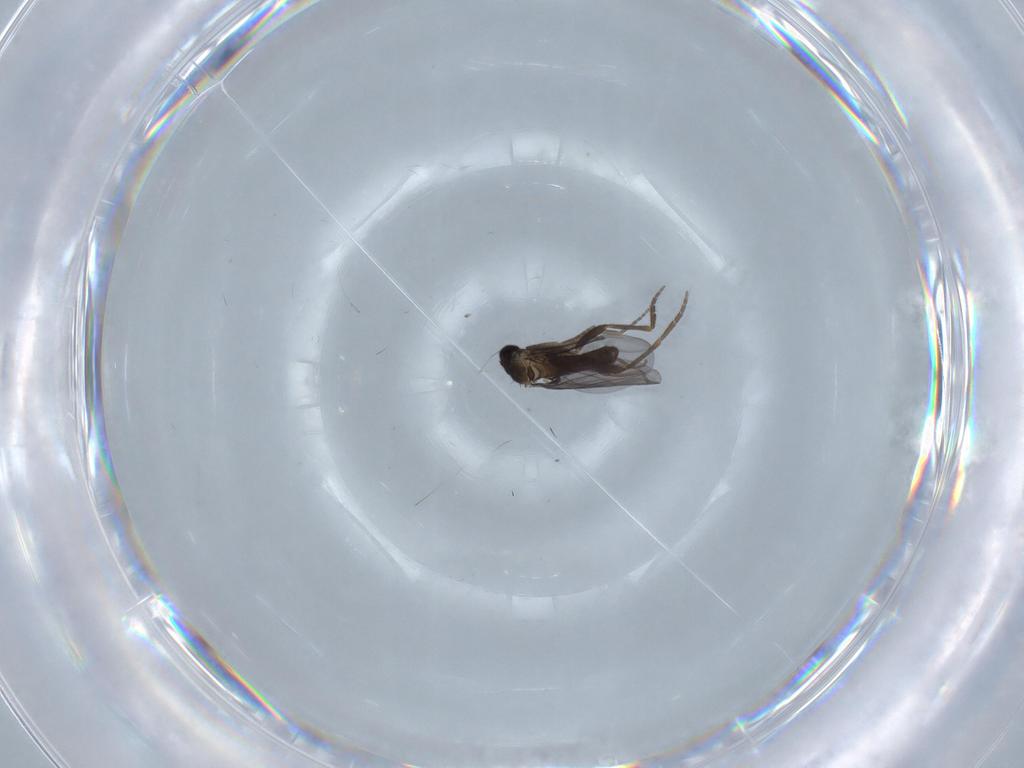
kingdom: Animalia
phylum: Arthropoda
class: Insecta
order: Diptera
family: Phoridae
